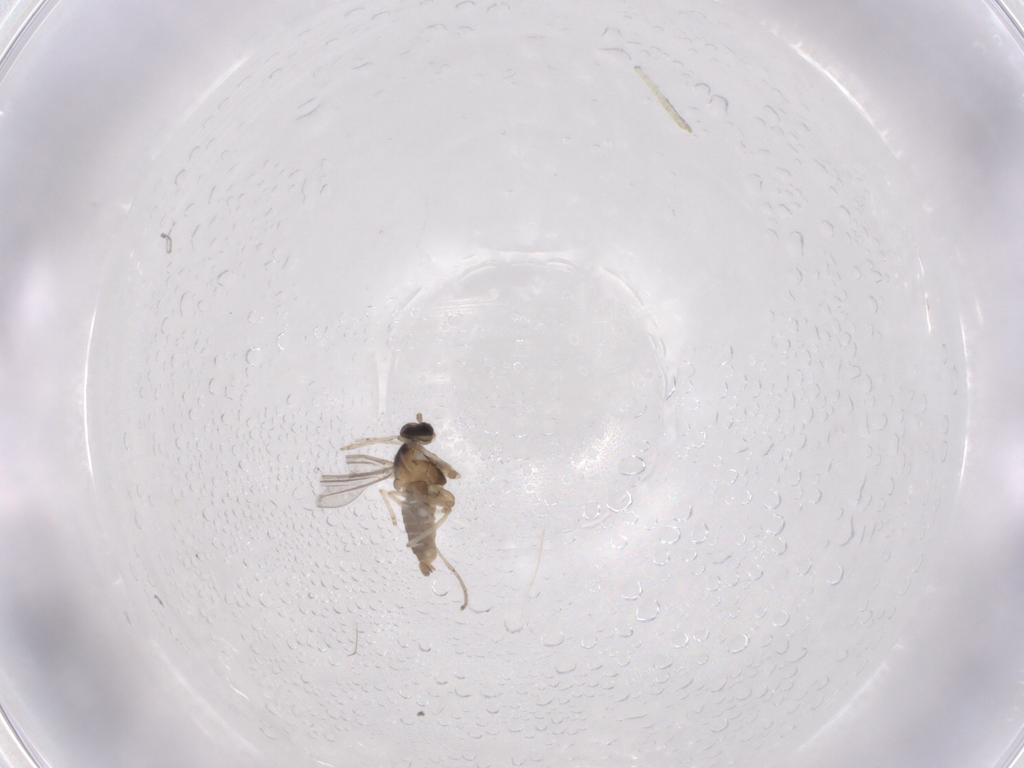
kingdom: Animalia
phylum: Arthropoda
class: Insecta
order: Diptera
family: Cecidomyiidae
